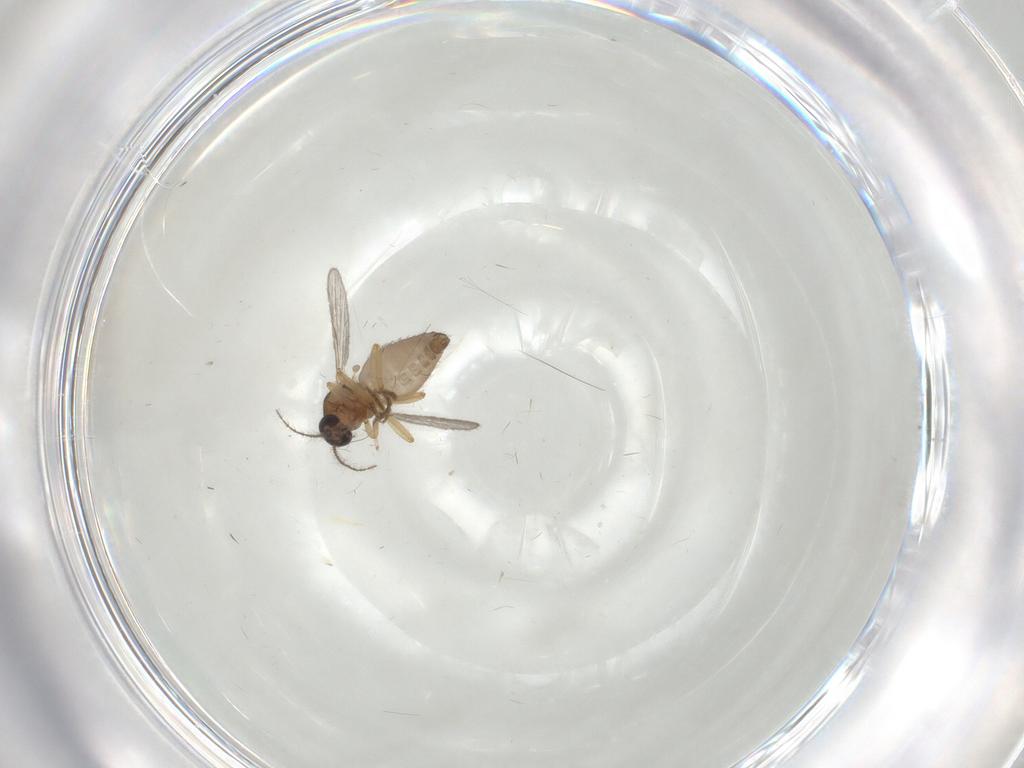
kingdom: Animalia
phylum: Arthropoda
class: Insecta
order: Diptera
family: Ceratopogonidae
